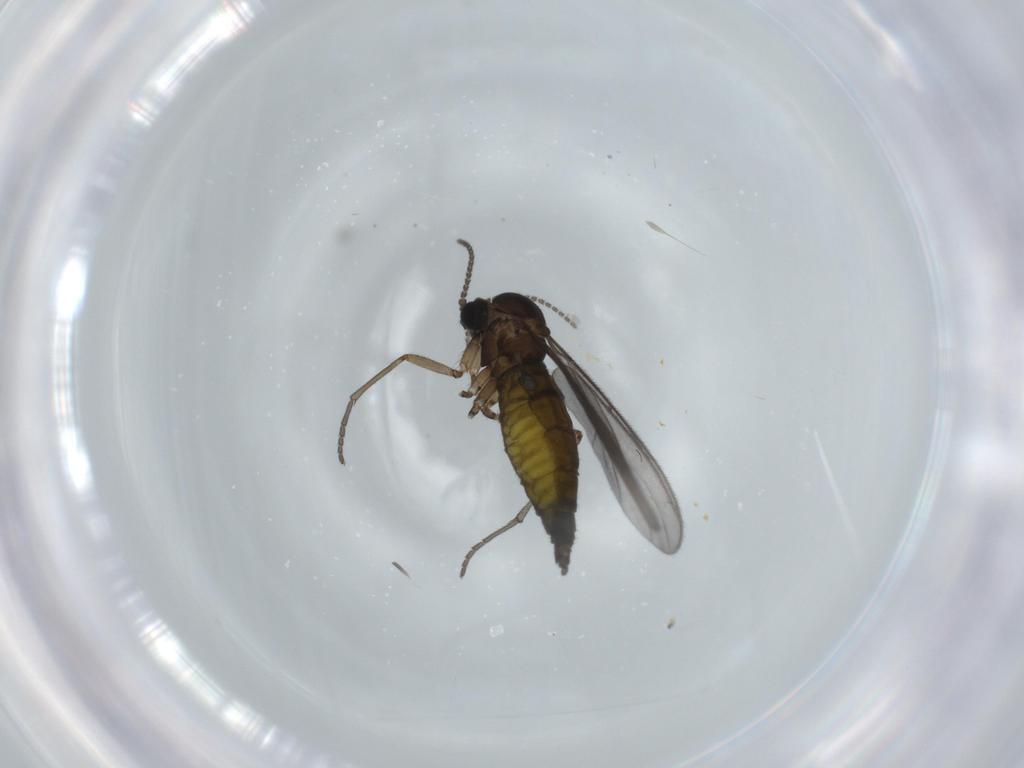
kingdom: Animalia
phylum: Arthropoda
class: Insecta
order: Diptera
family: Sciaridae
